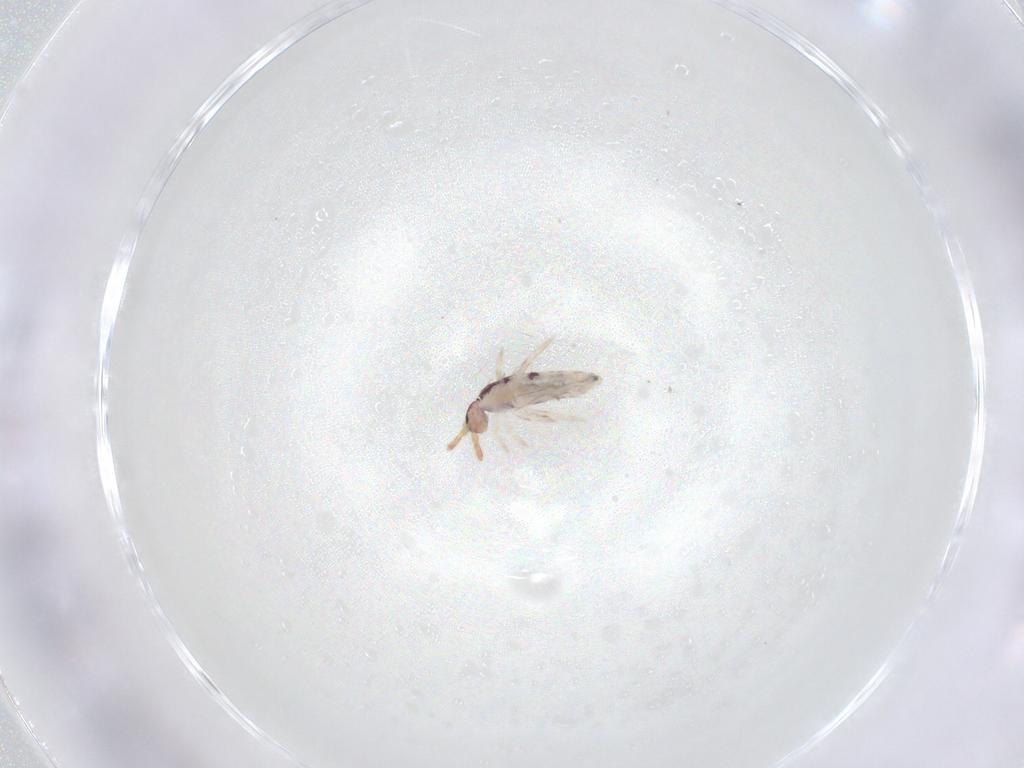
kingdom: Animalia
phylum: Arthropoda
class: Collembola
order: Entomobryomorpha
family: Entomobryidae
